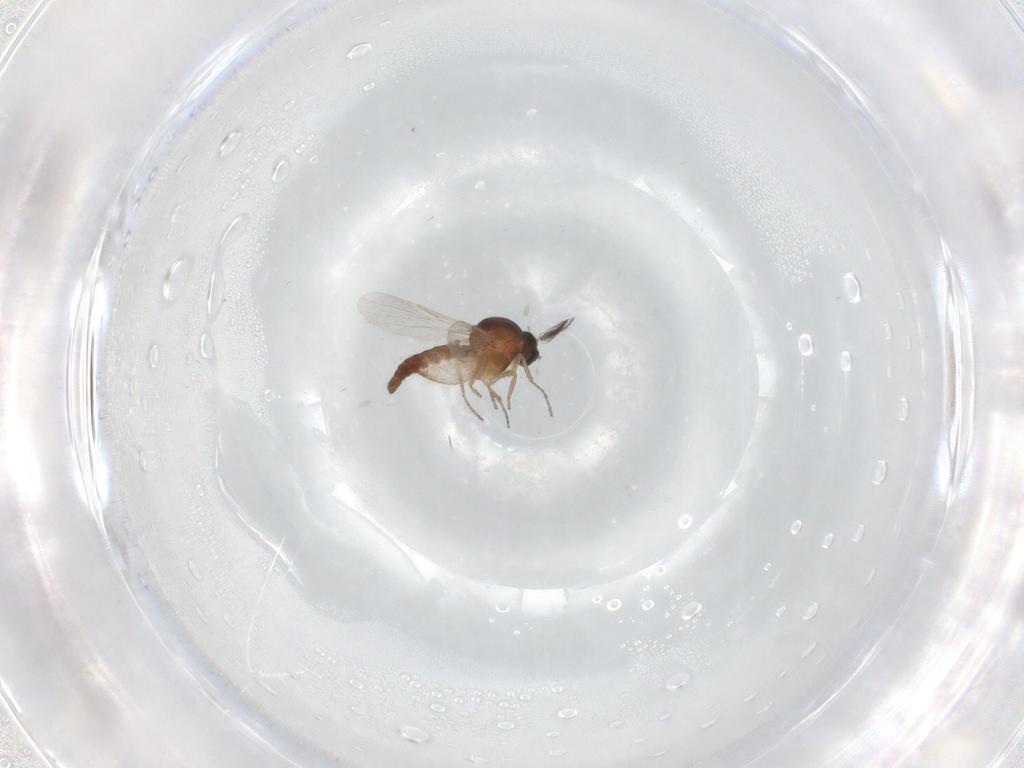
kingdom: Animalia
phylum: Arthropoda
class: Insecta
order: Diptera
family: Ceratopogonidae
